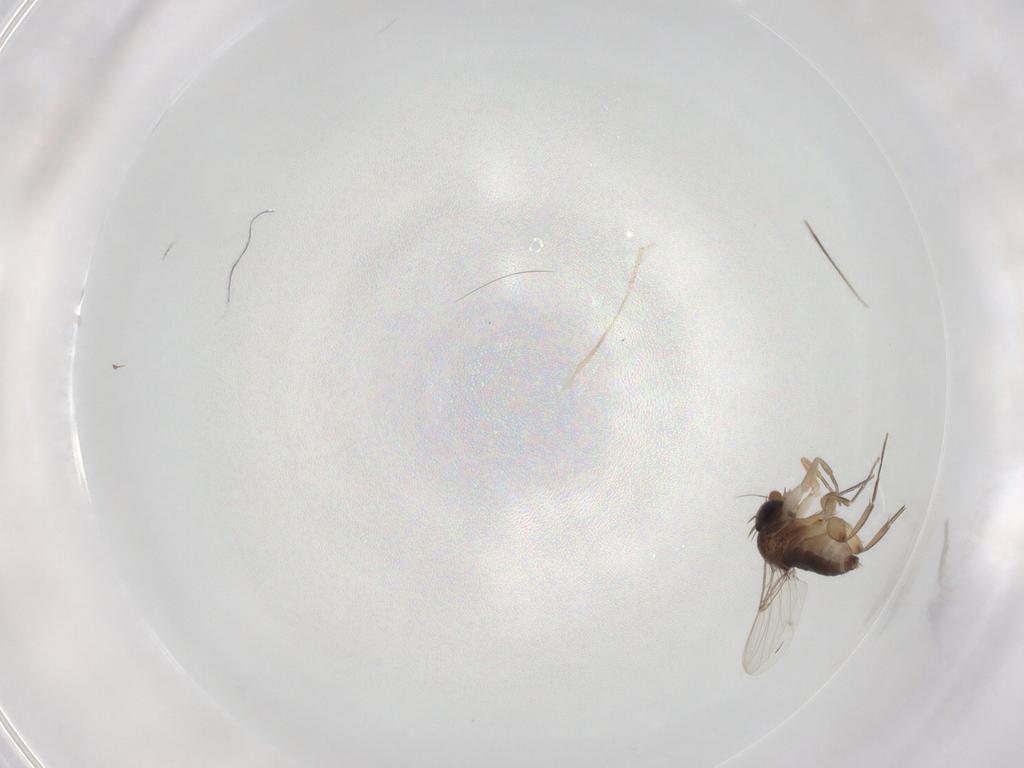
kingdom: Animalia
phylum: Arthropoda
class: Insecta
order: Diptera
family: Phoridae
